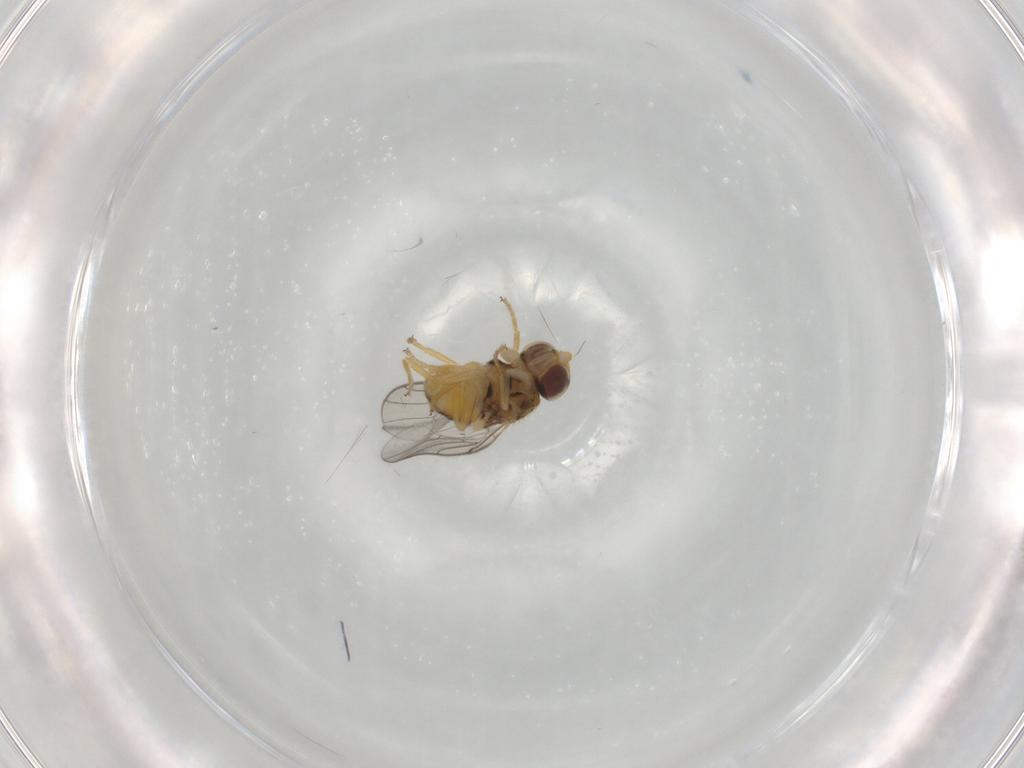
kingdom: Animalia
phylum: Arthropoda
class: Insecta
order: Diptera
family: Chloropidae
